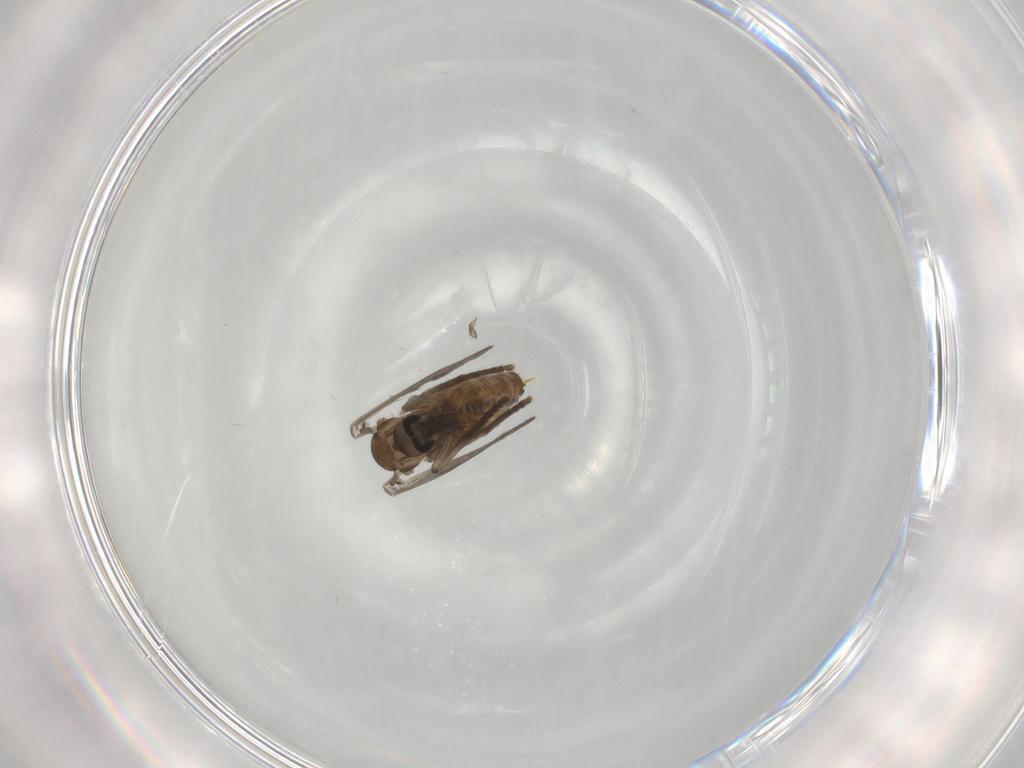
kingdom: Animalia
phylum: Arthropoda
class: Insecta
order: Diptera
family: Psychodidae
